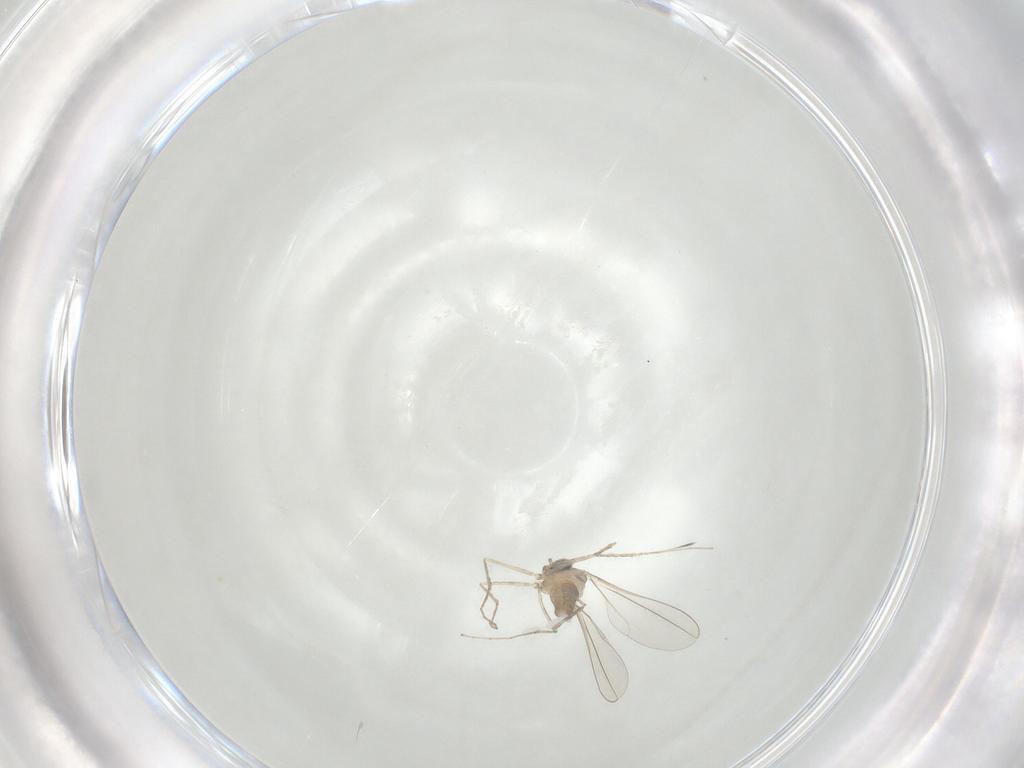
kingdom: Animalia
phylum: Arthropoda
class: Insecta
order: Diptera
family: Cecidomyiidae
